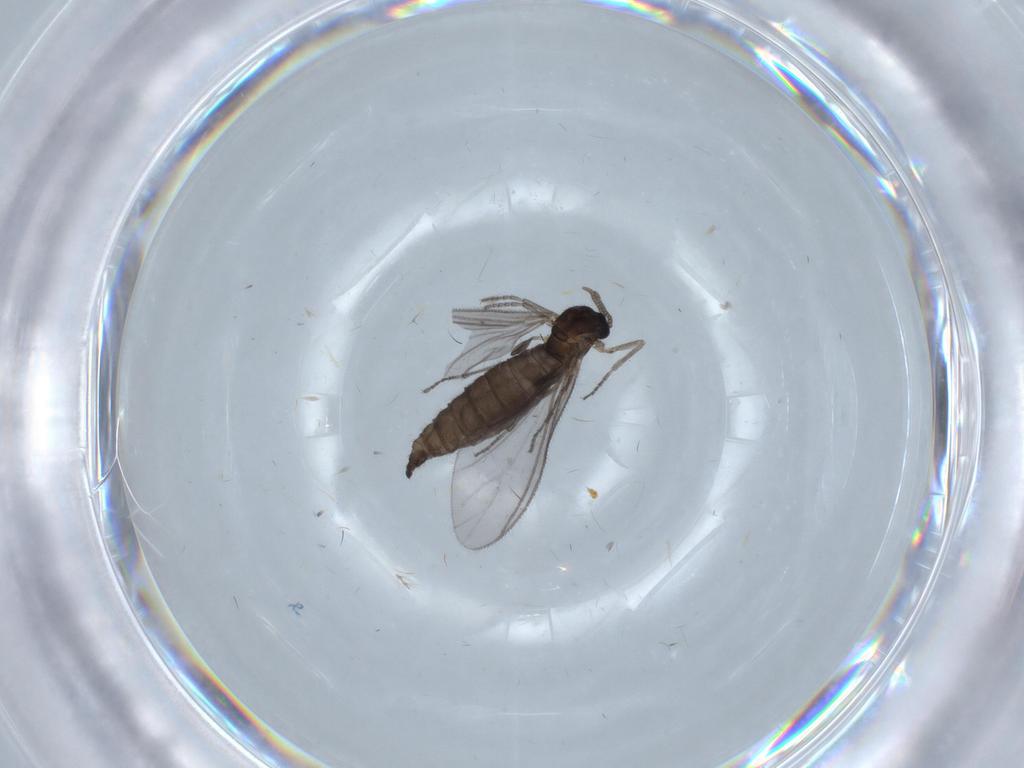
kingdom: Animalia
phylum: Arthropoda
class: Insecta
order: Diptera
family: Sciaridae
